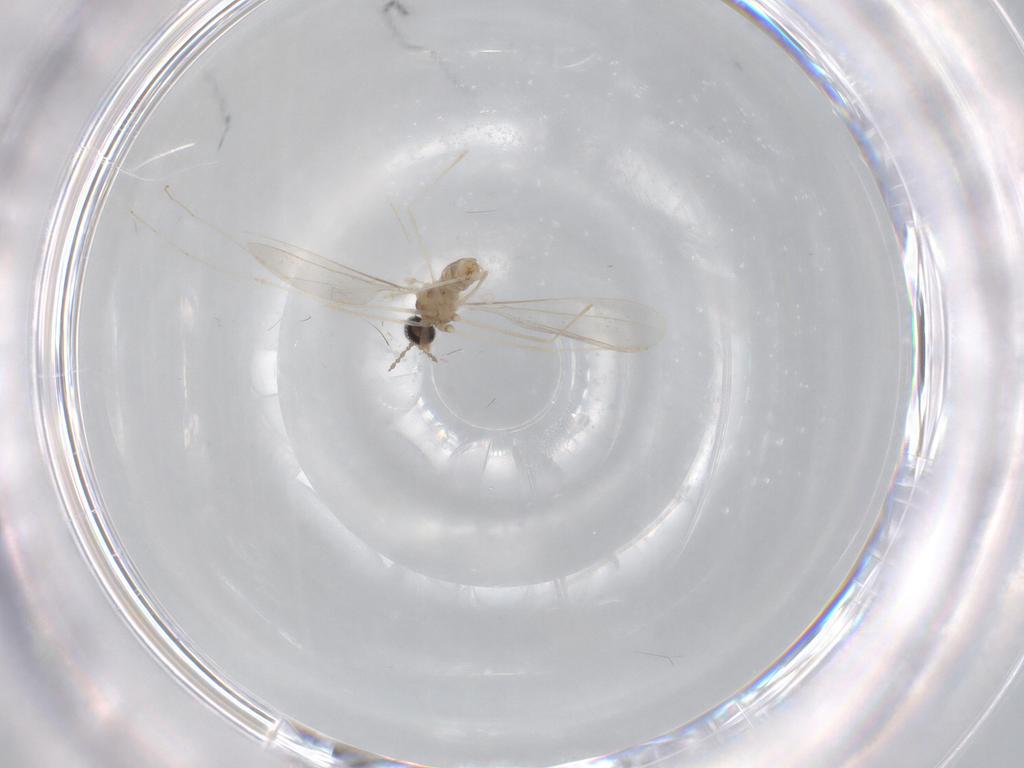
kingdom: Animalia
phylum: Arthropoda
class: Insecta
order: Diptera
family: Cecidomyiidae
